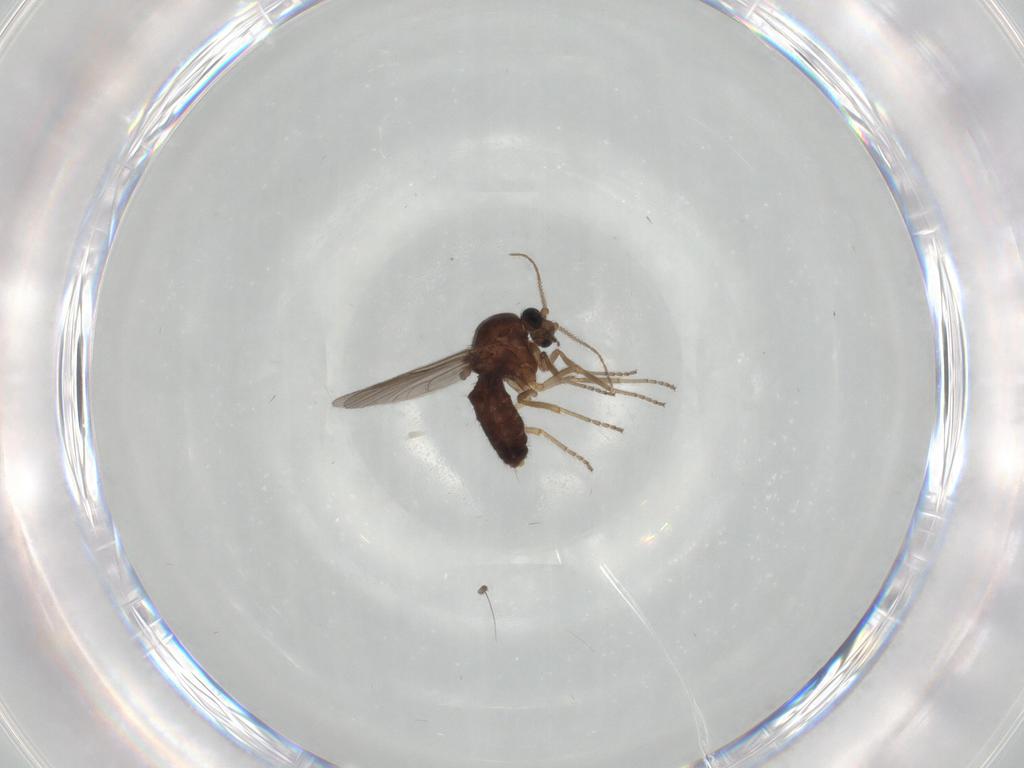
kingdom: Animalia
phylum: Arthropoda
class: Insecta
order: Diptera
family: Ceratopogonidae
